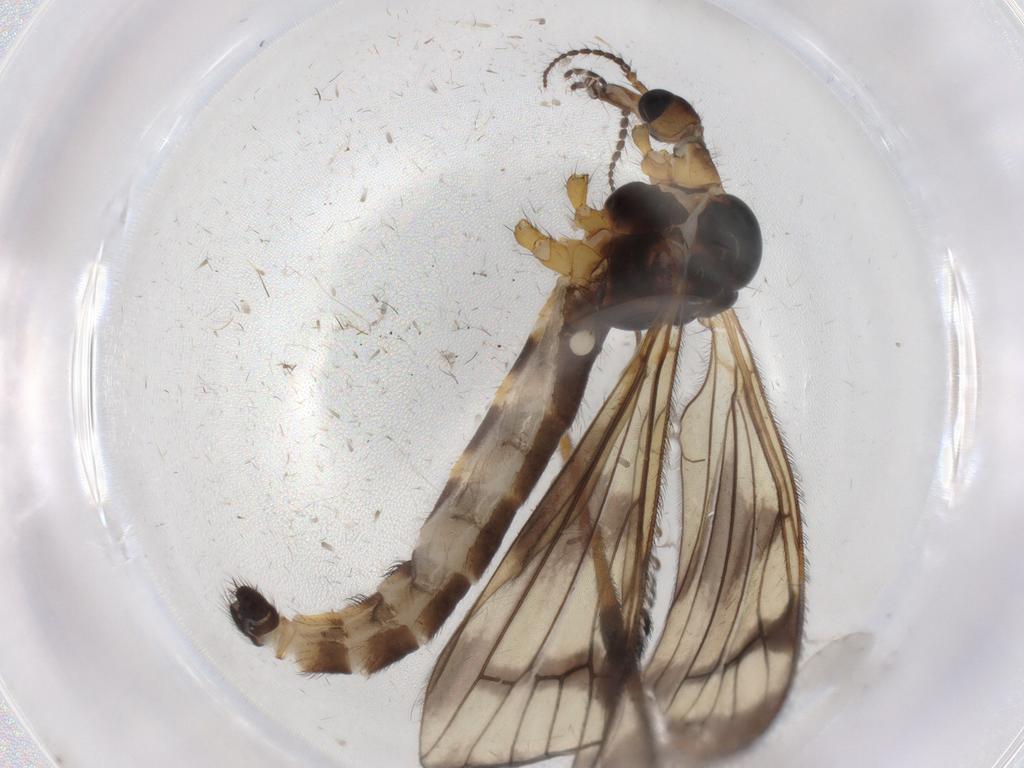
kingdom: Animalia
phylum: Arthropoda
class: Insecta
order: Diptera
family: Limoniidae
